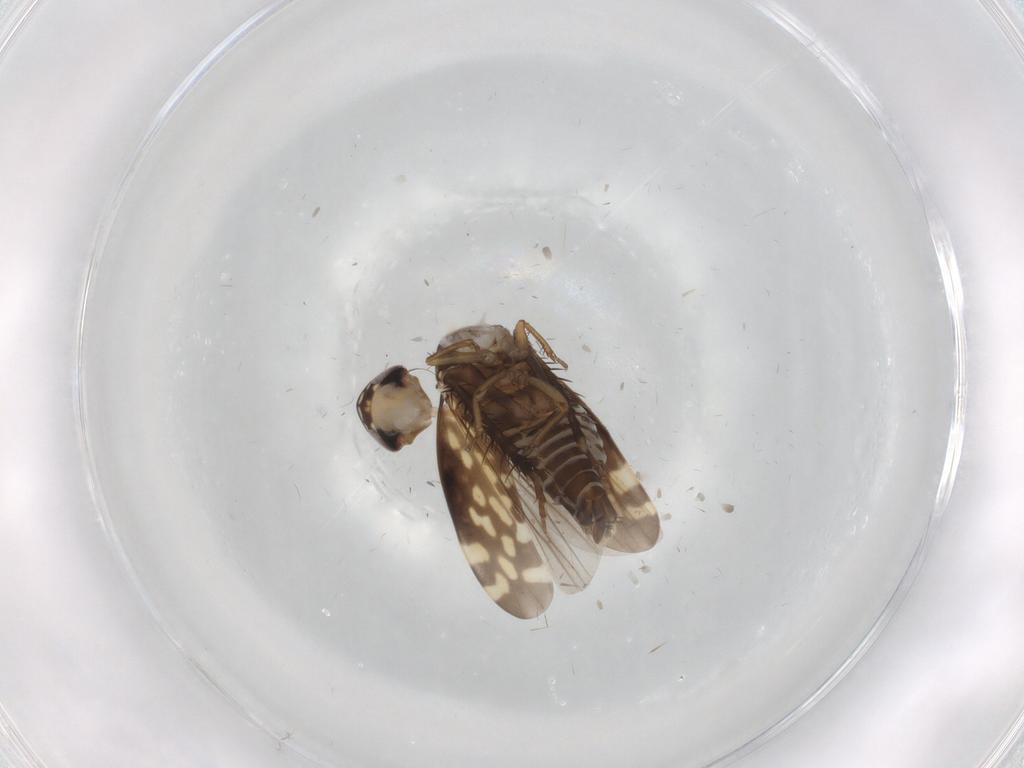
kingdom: Animalia
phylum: Arthropoda
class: Insecta
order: Hemiptera
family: Cicadellidae
